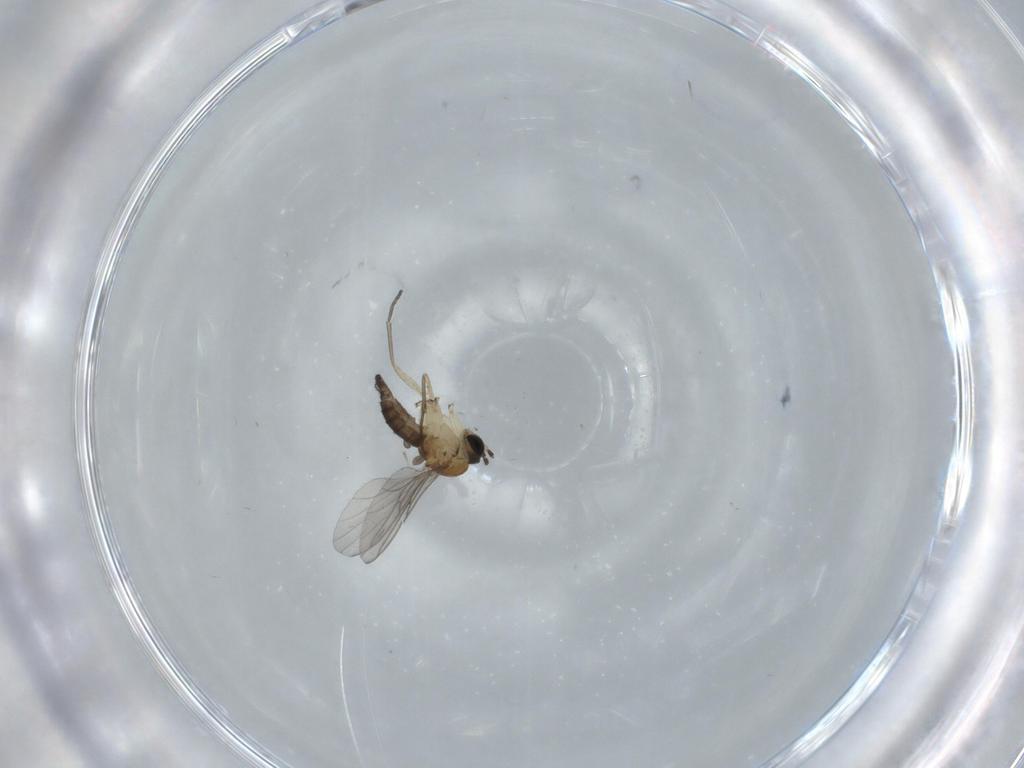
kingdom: Animalia
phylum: Arthropoda
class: Insecta
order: Diptera
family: Sciaridae
